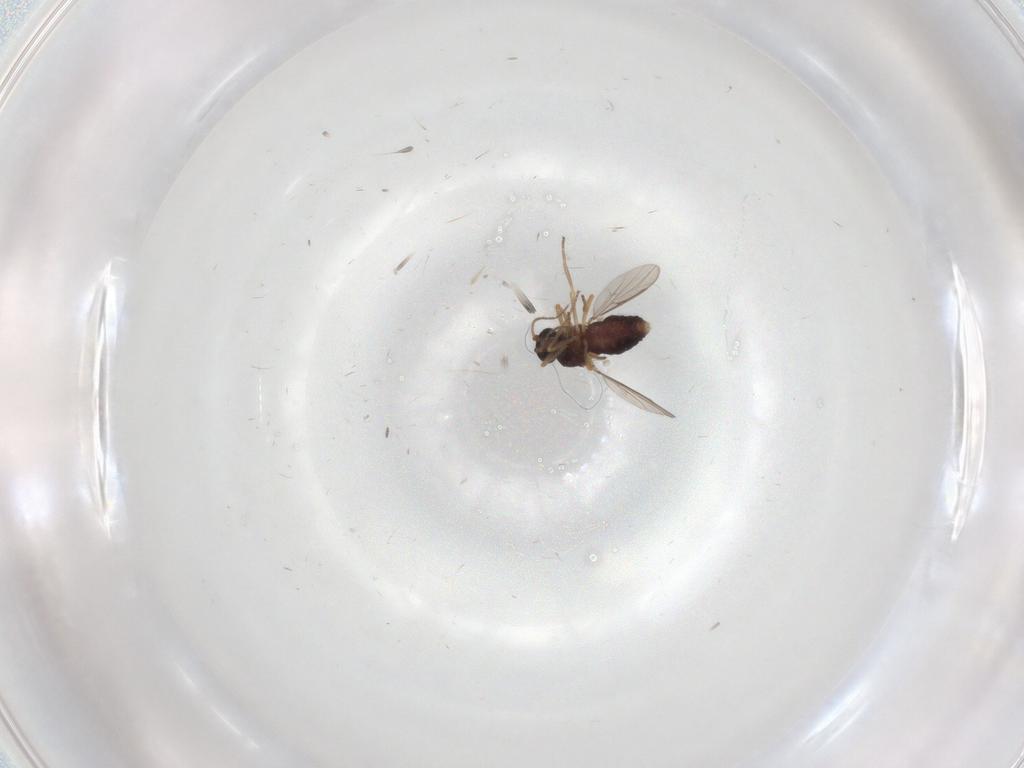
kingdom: Animalia
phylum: Arthropoda
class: Insecta
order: Diptera
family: Ceratopogonidae
